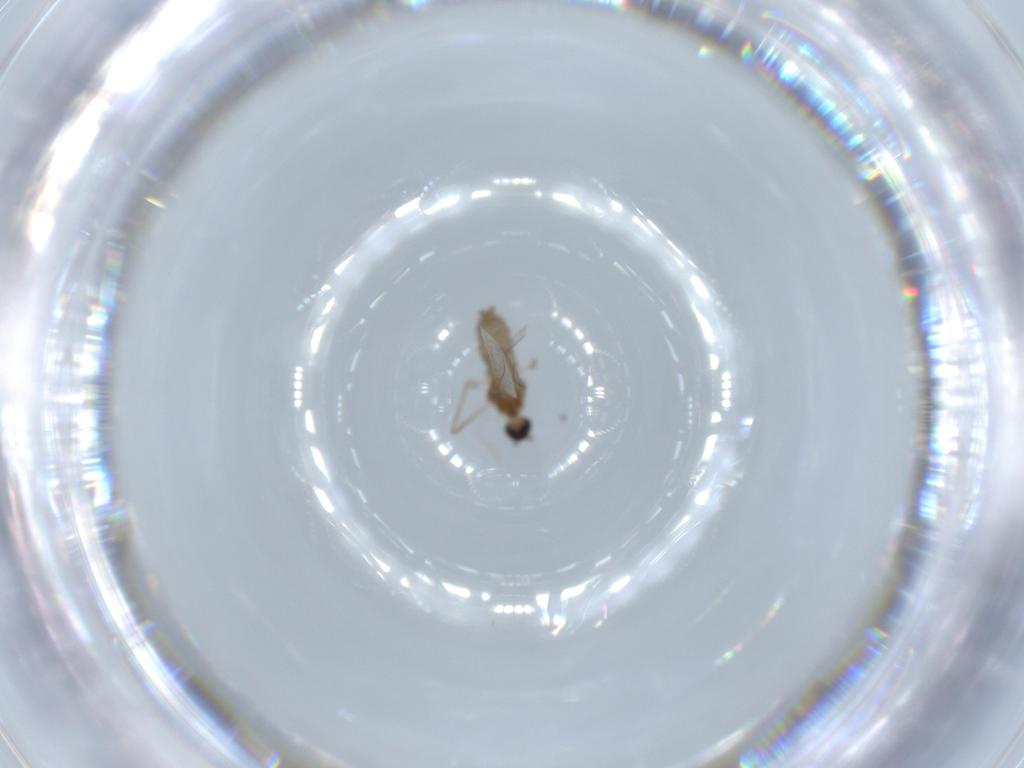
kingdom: Animalia
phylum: Arthropoda
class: Insecta
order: Diptera
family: Cecidomyiidae
